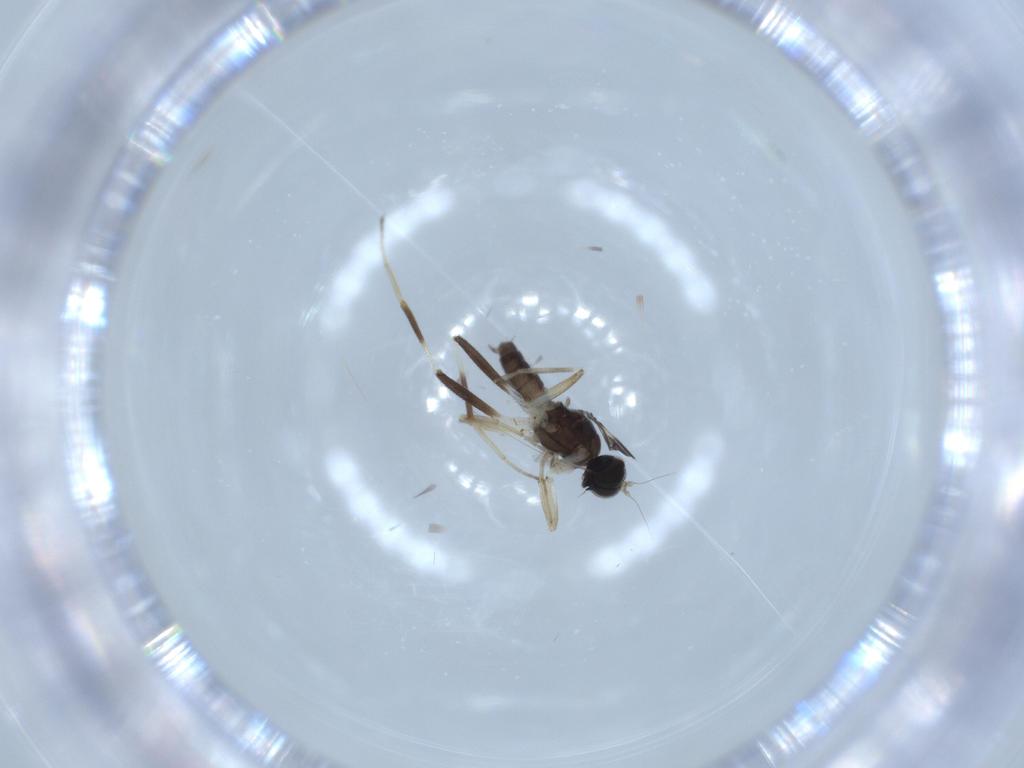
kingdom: Animalia
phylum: Arthropoda
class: Insecta
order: Diptera
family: Hybotidae
